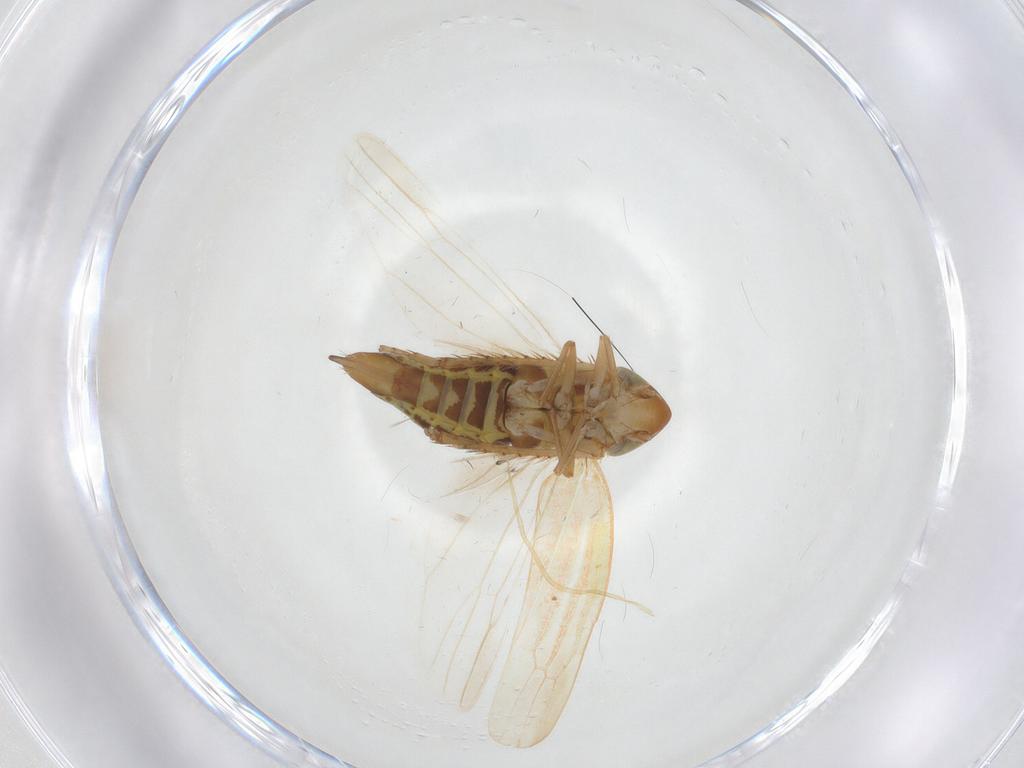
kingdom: Animalia
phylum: Arthropoda
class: Insecta
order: Hemiptera
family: Cicadellidae
